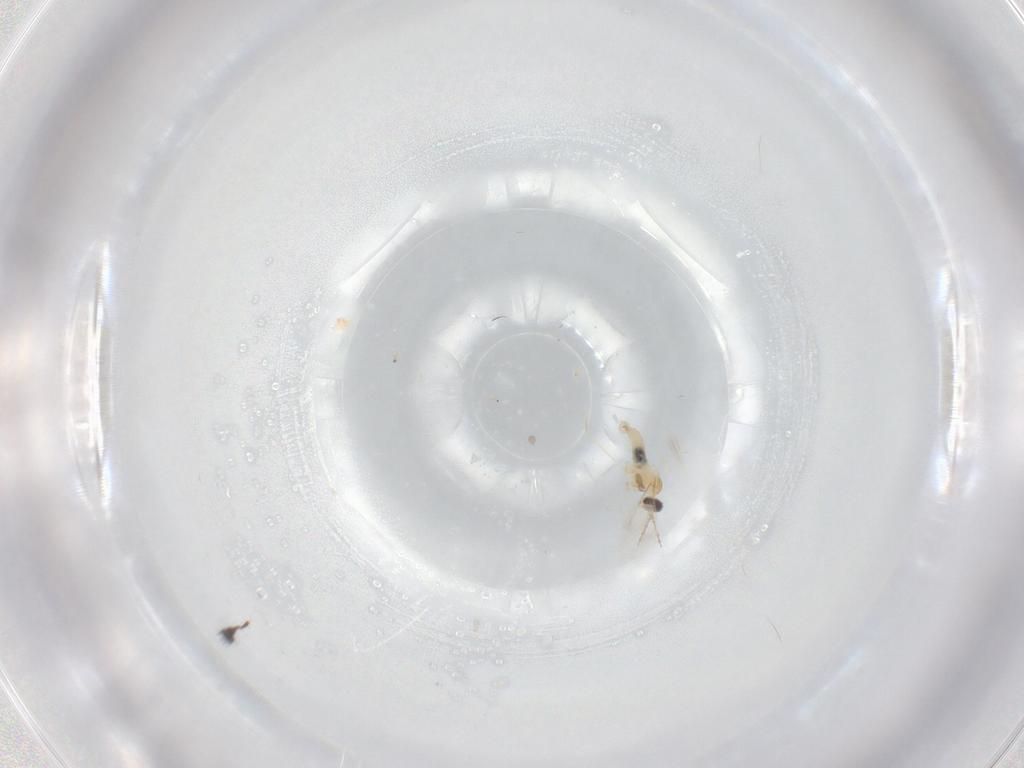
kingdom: Animalia
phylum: Arthropoda
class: Insecta
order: Diptera
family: Cecidomyiidae
